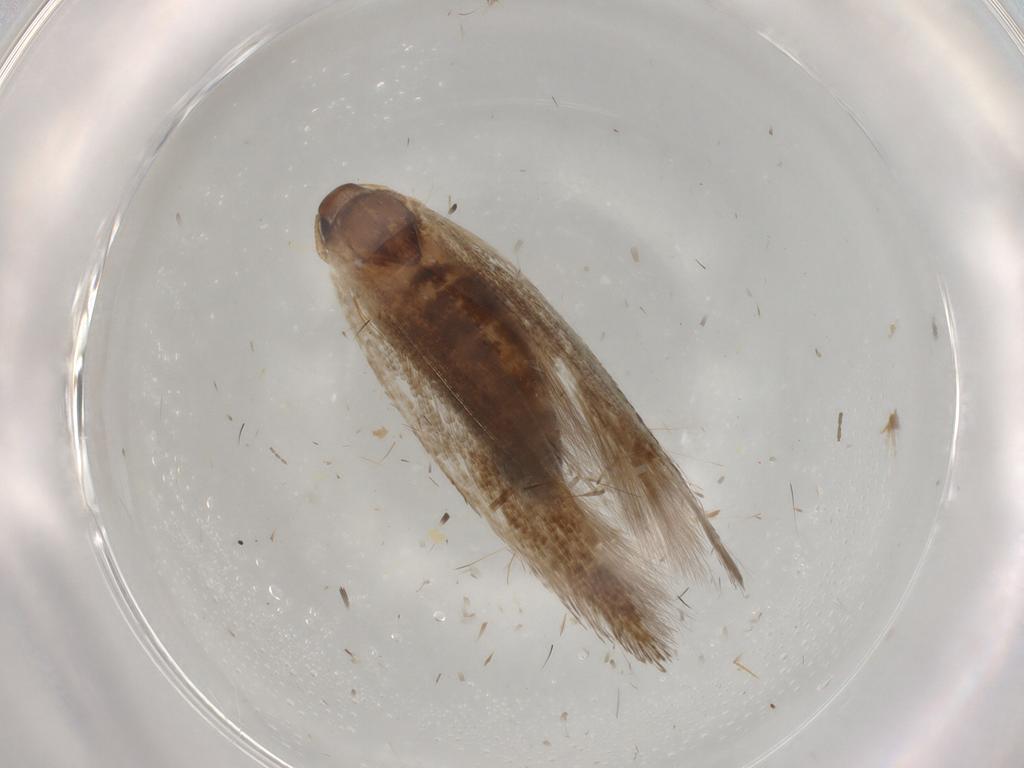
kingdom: Animalia
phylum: Arthropoda
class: Insecta
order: Lepidoptera
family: Cosmopterigidae
